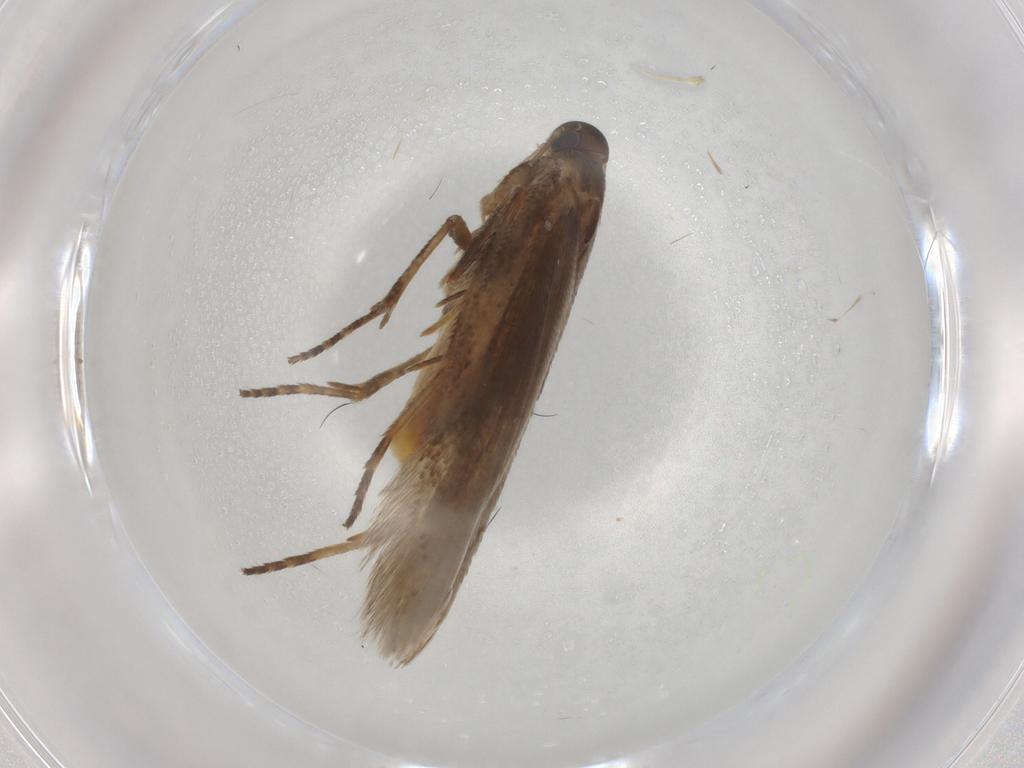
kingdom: Animalia
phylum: Arthropoda
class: Insecta
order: Lepidoptera
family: Gelechiidae
